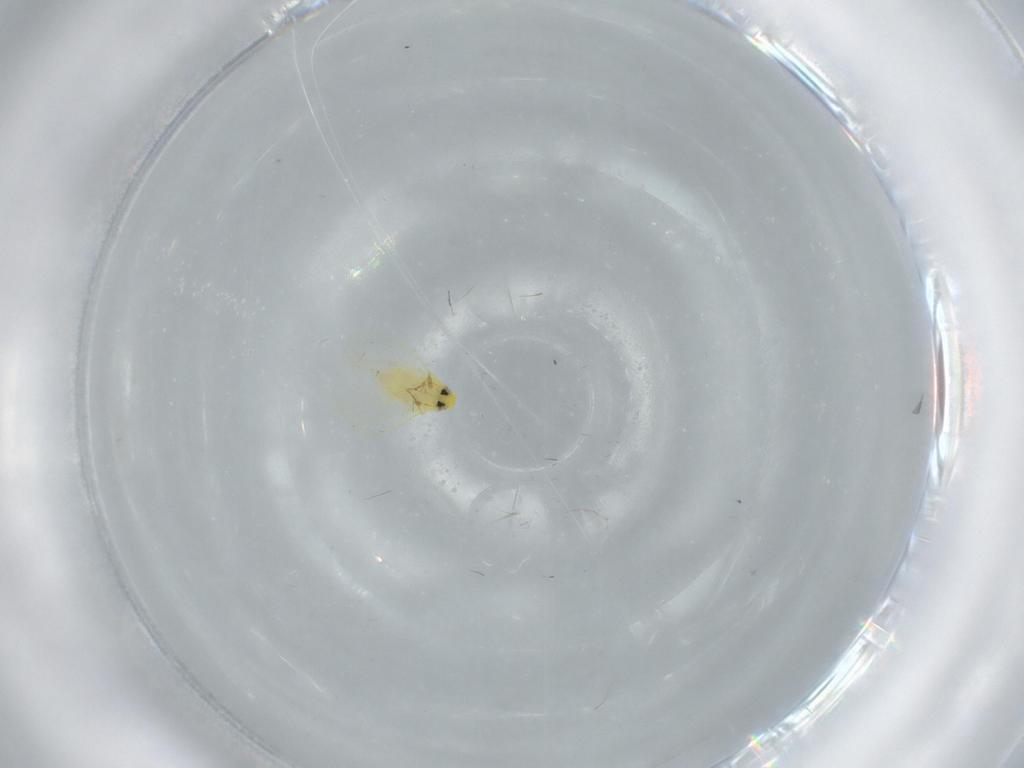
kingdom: Animalia
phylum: Arthropoda
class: Insecta
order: Hemiptera
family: Aleyrodidae
